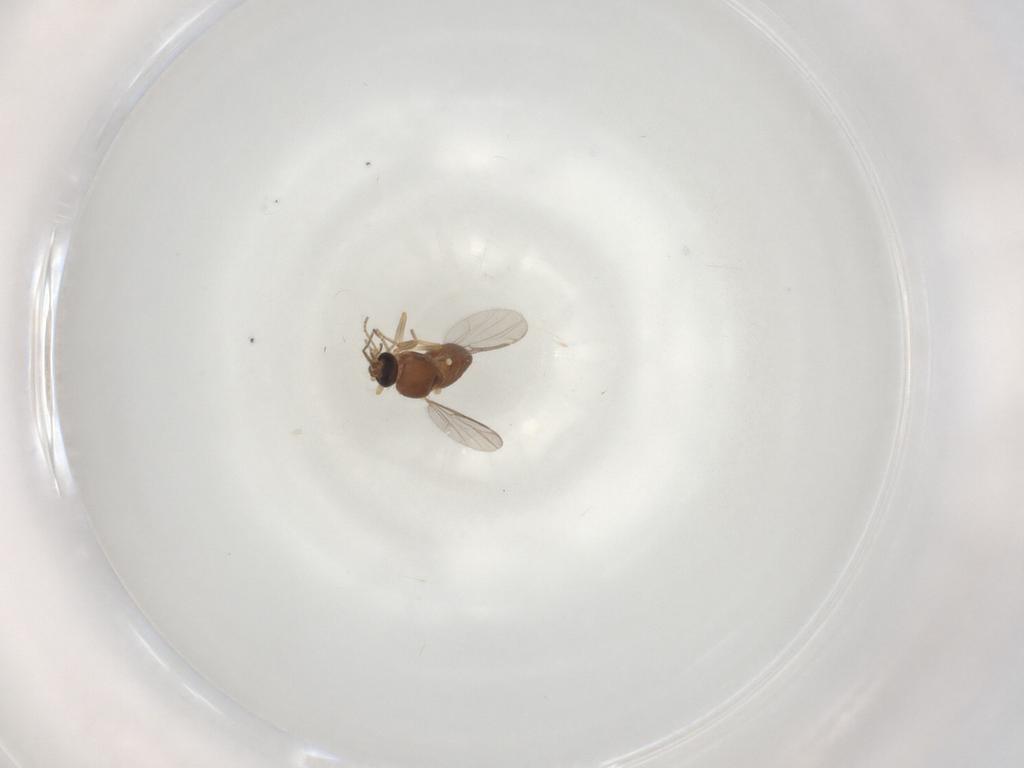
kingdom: Animalia
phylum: Arthropoda
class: Insecta
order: Diptera
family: Ceratopogonidae
